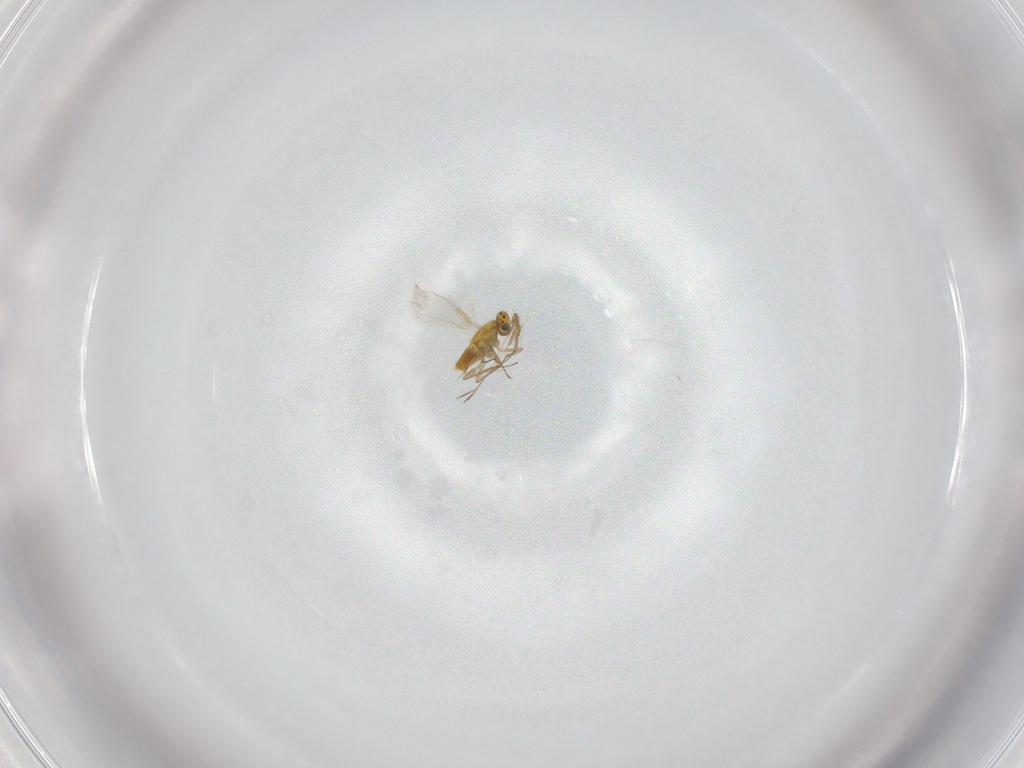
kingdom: Animalia
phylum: Arthropoda
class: Insecta
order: Hymenoptera
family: Aphelinidae
